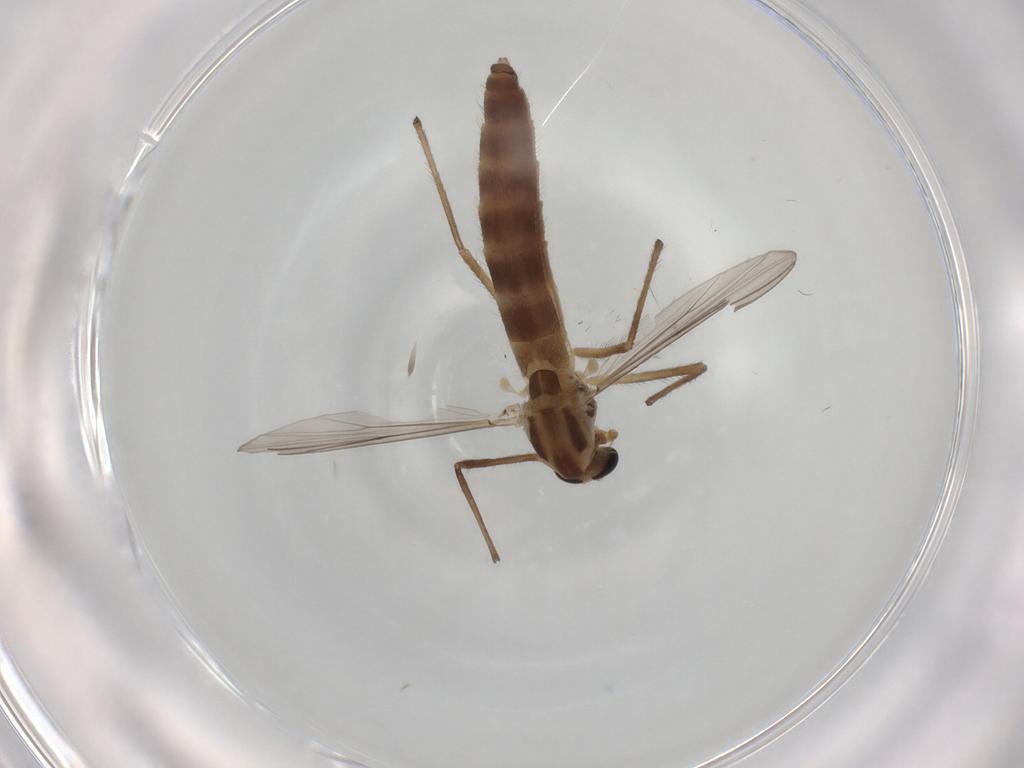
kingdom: Animalia
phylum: Arthropoda
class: Insecta
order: Diptera
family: Chironomidae
